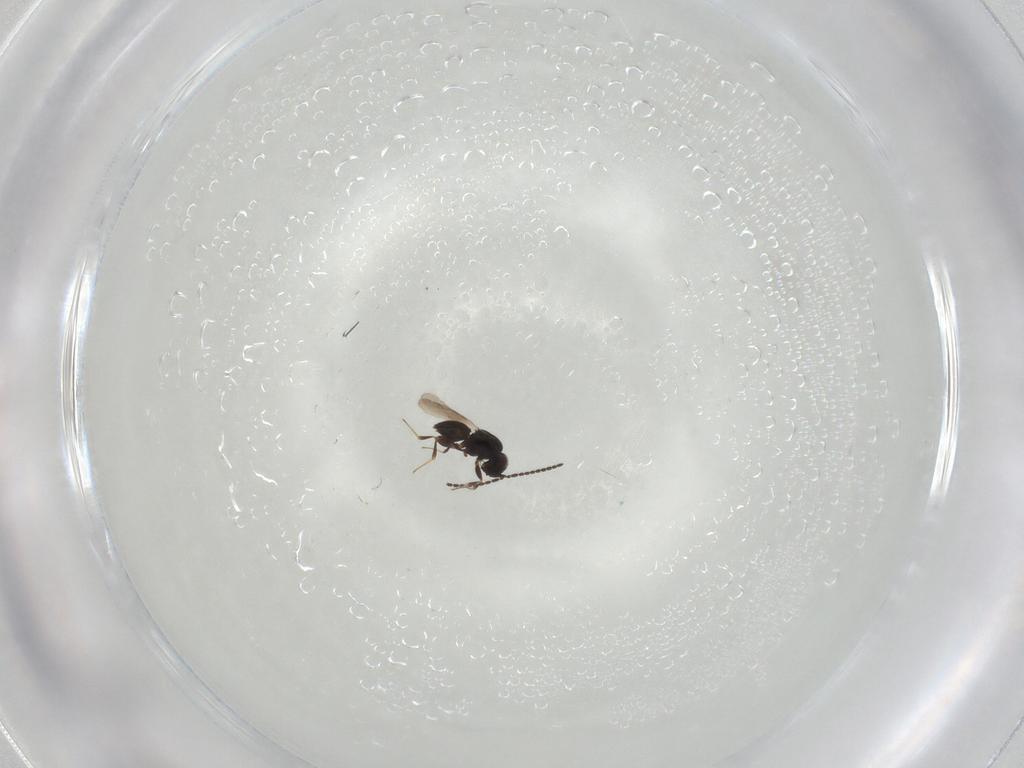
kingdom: Animalia
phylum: Arthropoda
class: Insecta
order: Hymenoptera
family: Scelionidae
